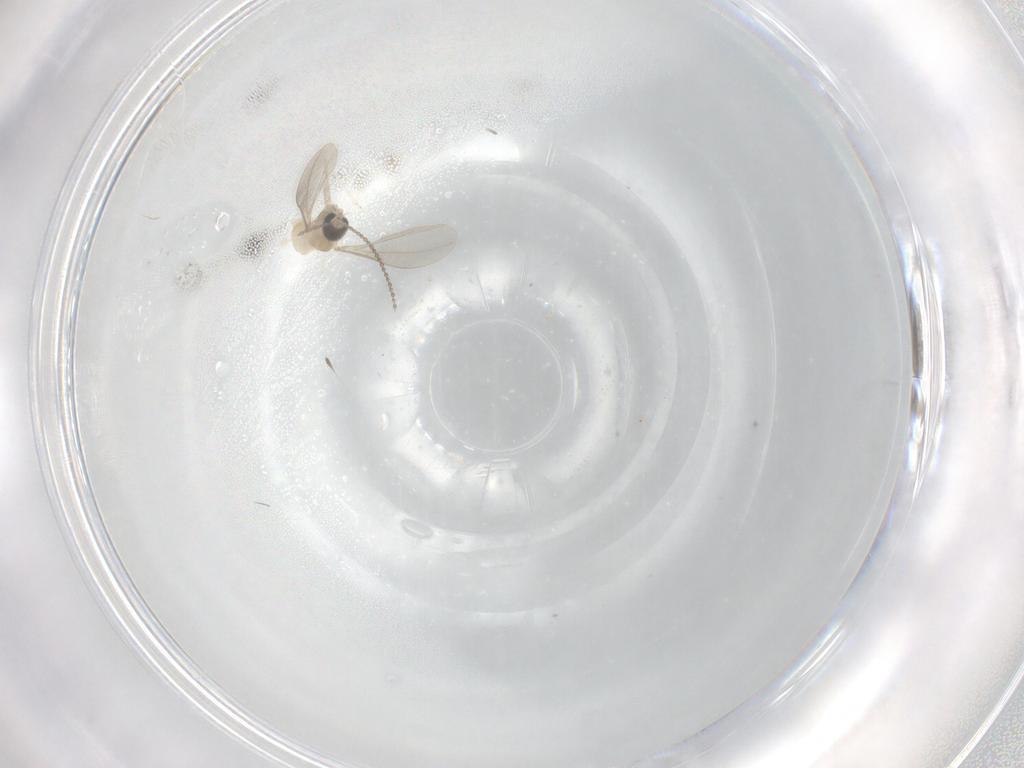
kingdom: Animalia
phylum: Arthropoda
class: Insecta
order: Diptera
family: Cecidomyiidae
